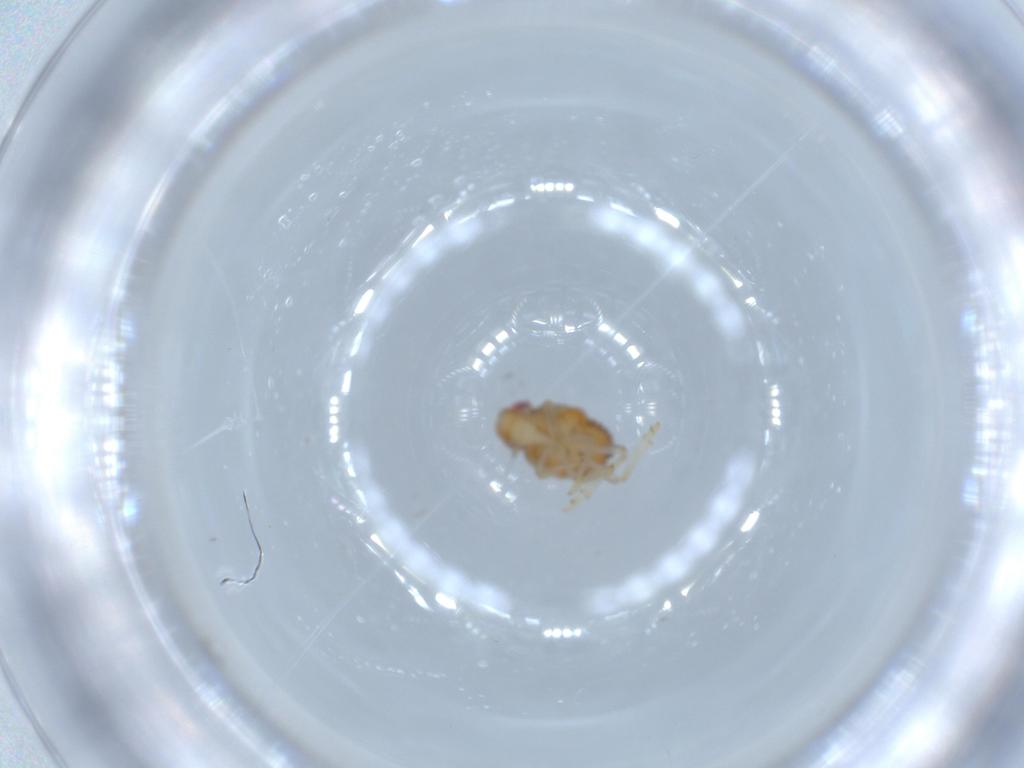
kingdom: Animalia
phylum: Arthropoda
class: Insecta
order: Hemiptera
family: Issidae
